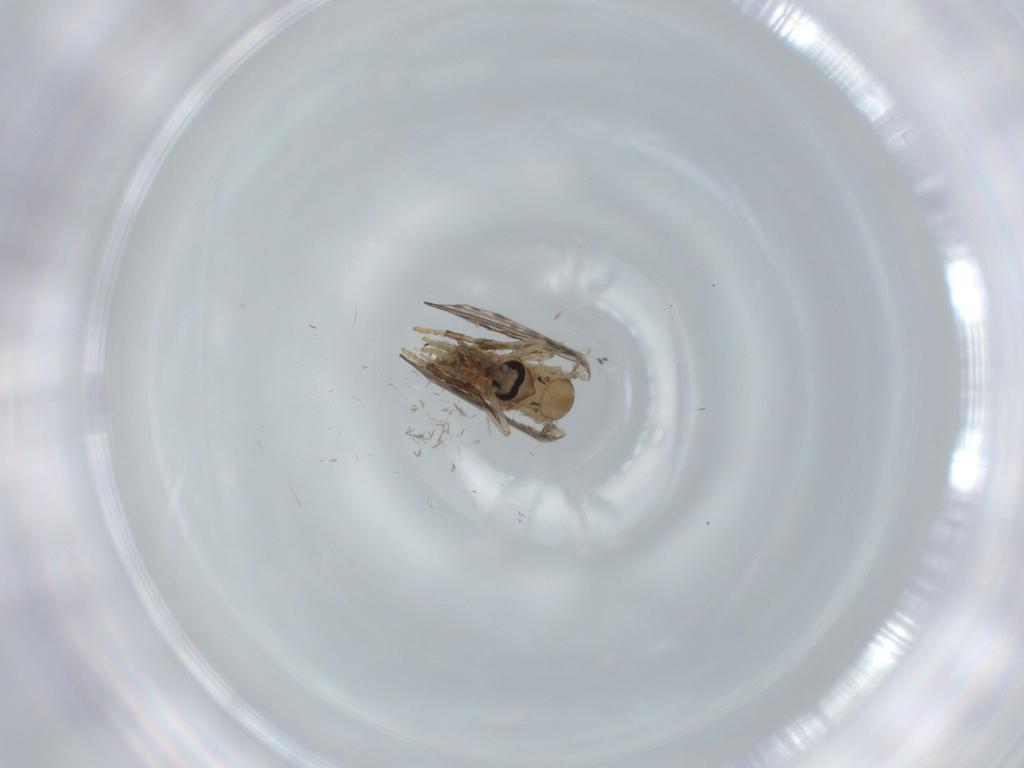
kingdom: Animalia
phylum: Arthropoda
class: Insecta
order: Diptera
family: Psychodidae
